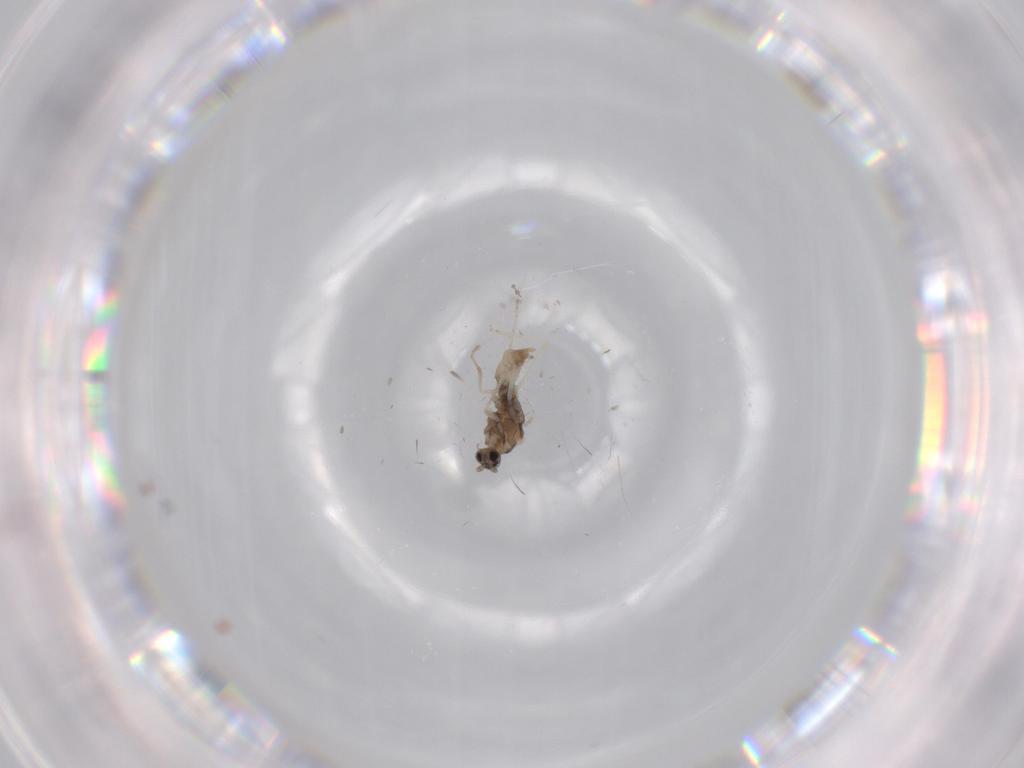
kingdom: Animalia
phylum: Arthropoda
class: Insecta
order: Diptera
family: Cecidomyiidae
